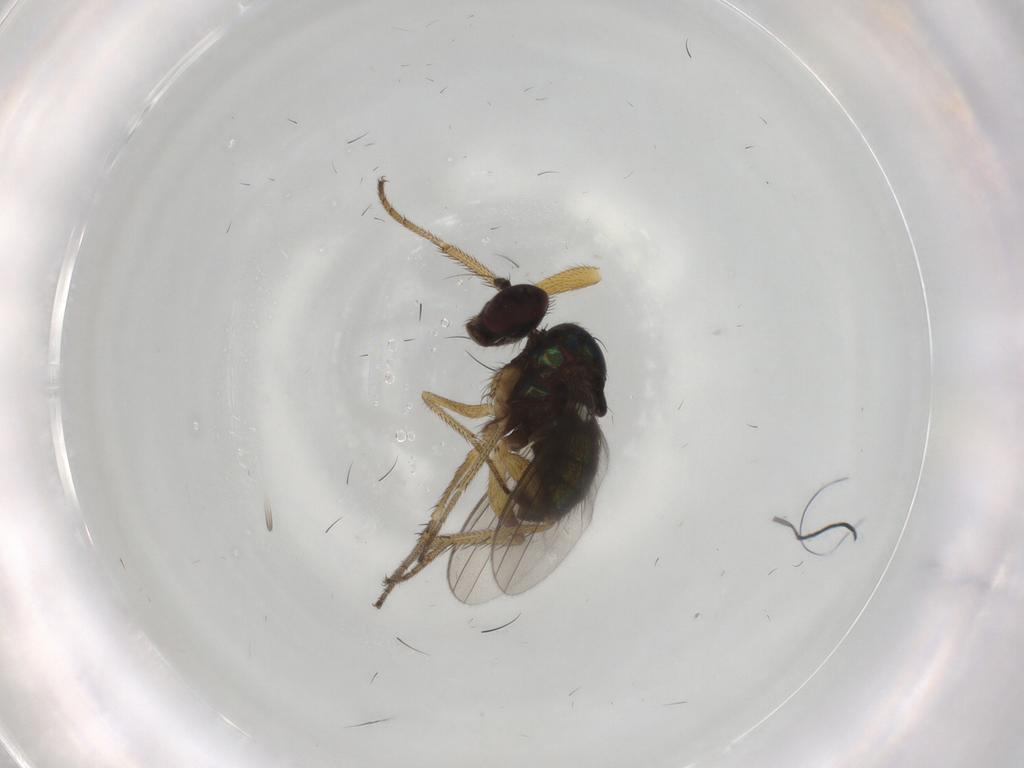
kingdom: Animalia
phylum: Arthropoda
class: Insecta
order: Diptera
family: Dolichopodidae
